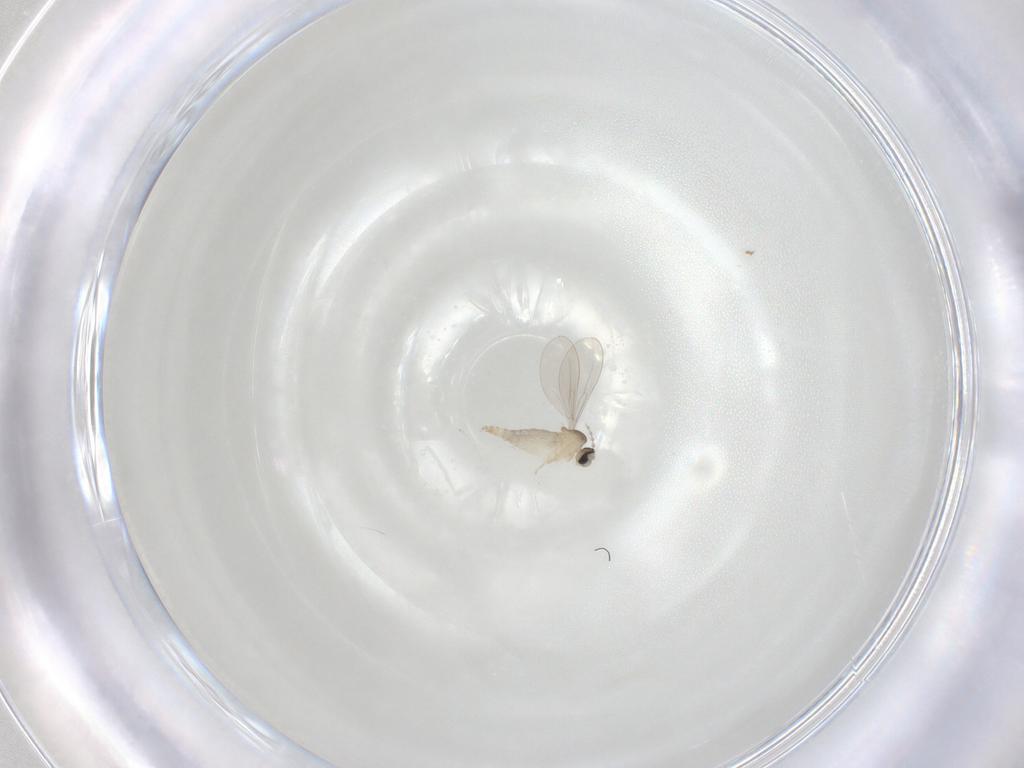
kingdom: Animalia
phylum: Arthropoda
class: Insecta
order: Diptera
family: Cecidomyiidae
